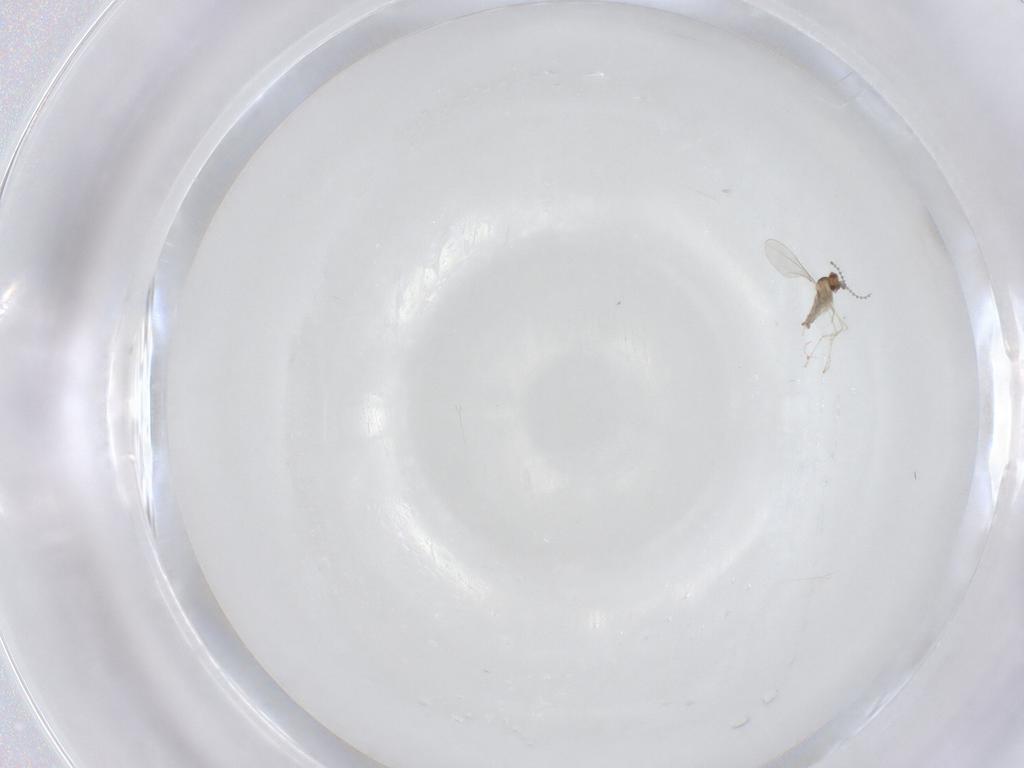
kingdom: Animalia
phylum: Arthropoda
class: Insecta
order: Diptera
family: Cecidomyiidae
